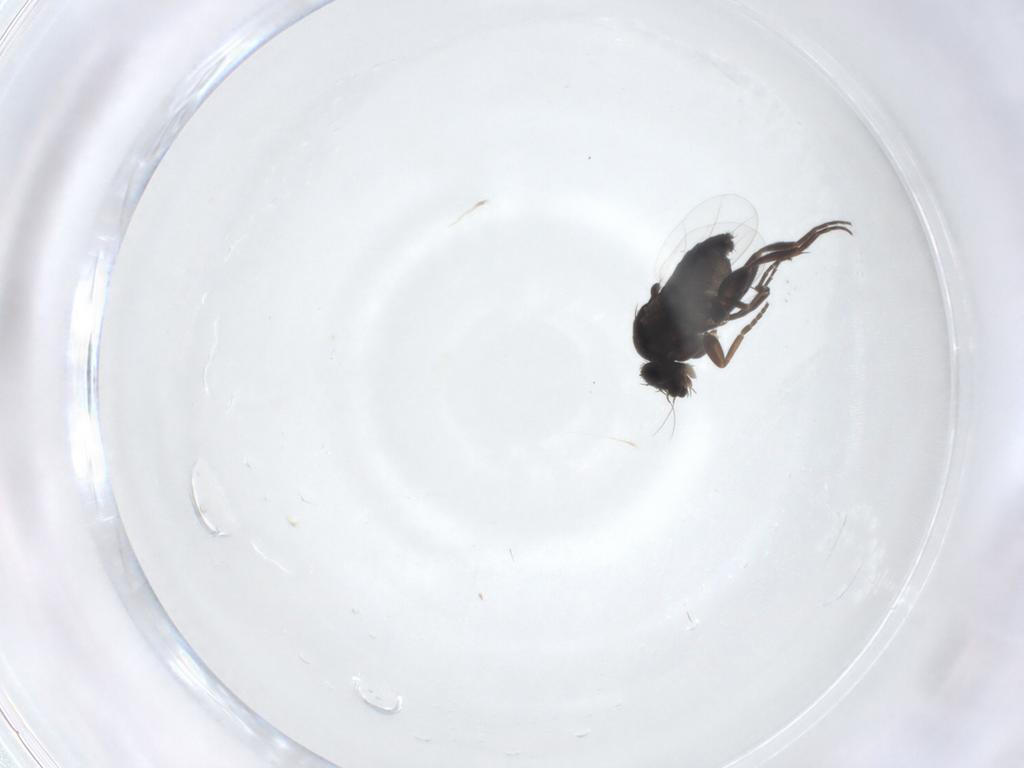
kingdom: Animalia
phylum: Arthropoda
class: Insecta
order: Diptera
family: Phoridae
